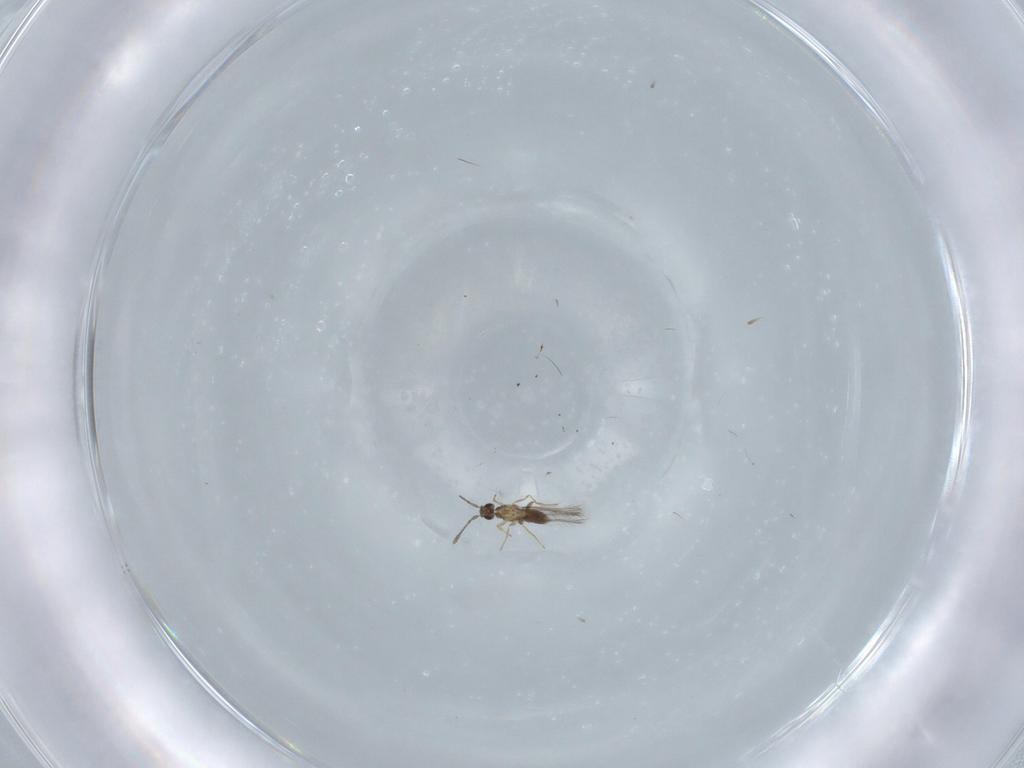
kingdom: Animalia
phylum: Arthropoda
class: Insecta
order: Hymenoptera
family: Mymaridae
